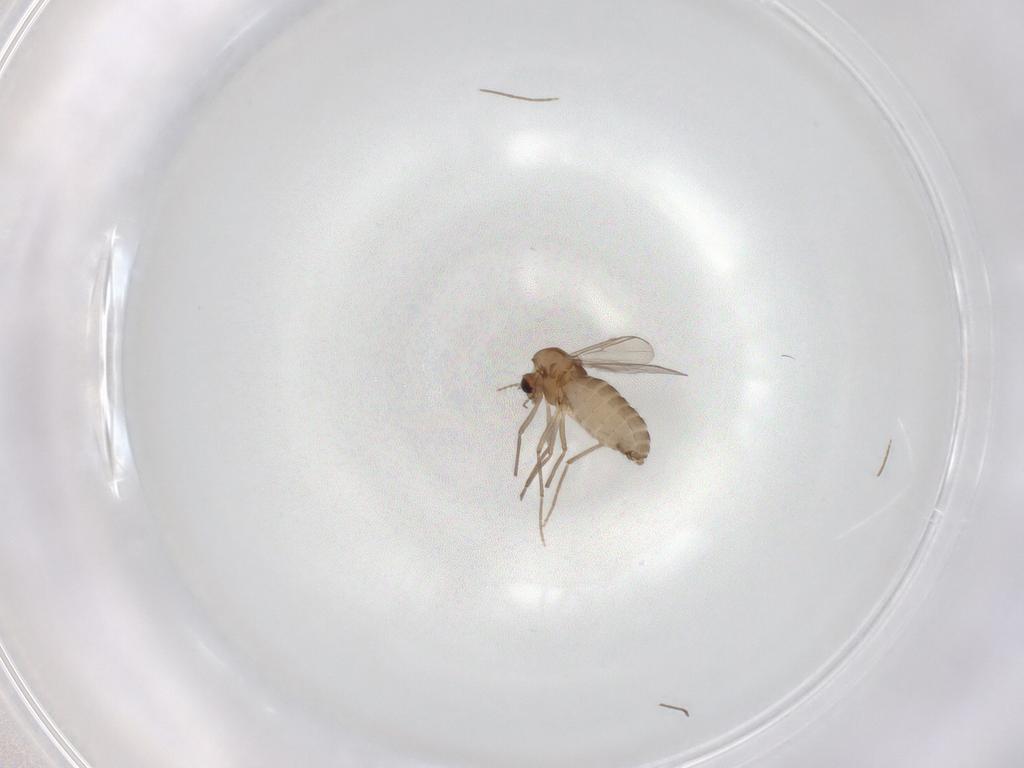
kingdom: Animalia
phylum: Arthropoda
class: Insecta
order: Diptera
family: Chironomidae
